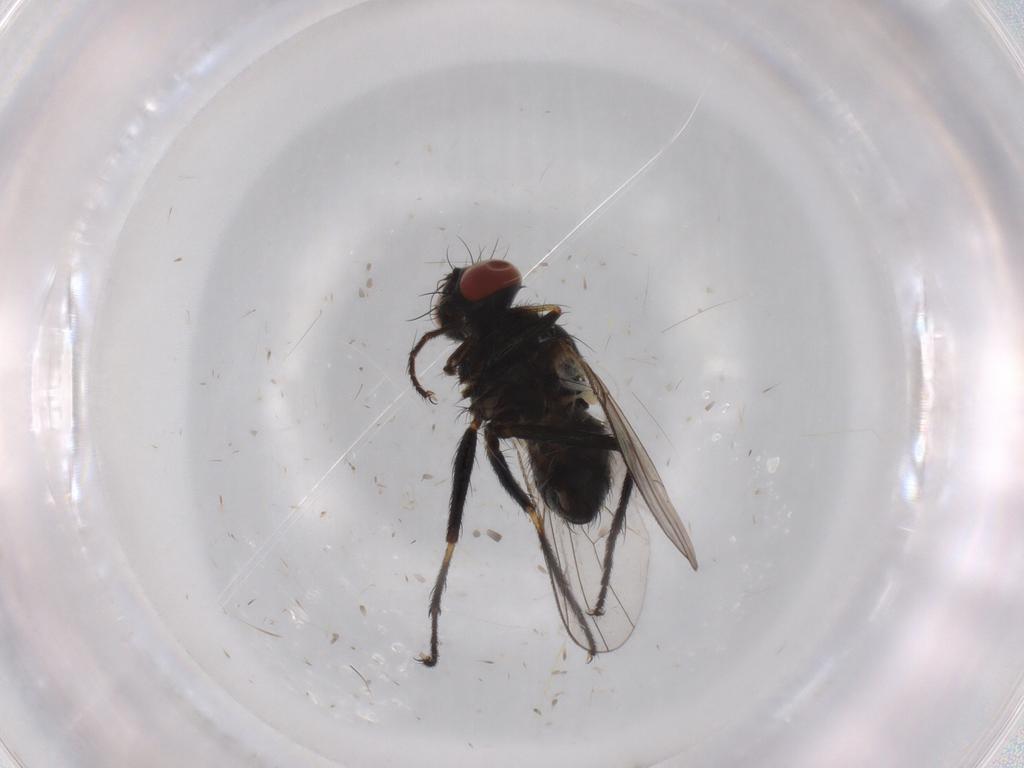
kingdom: Animalia
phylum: Arthropoda
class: Insecta
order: Diptera
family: Muscidae
